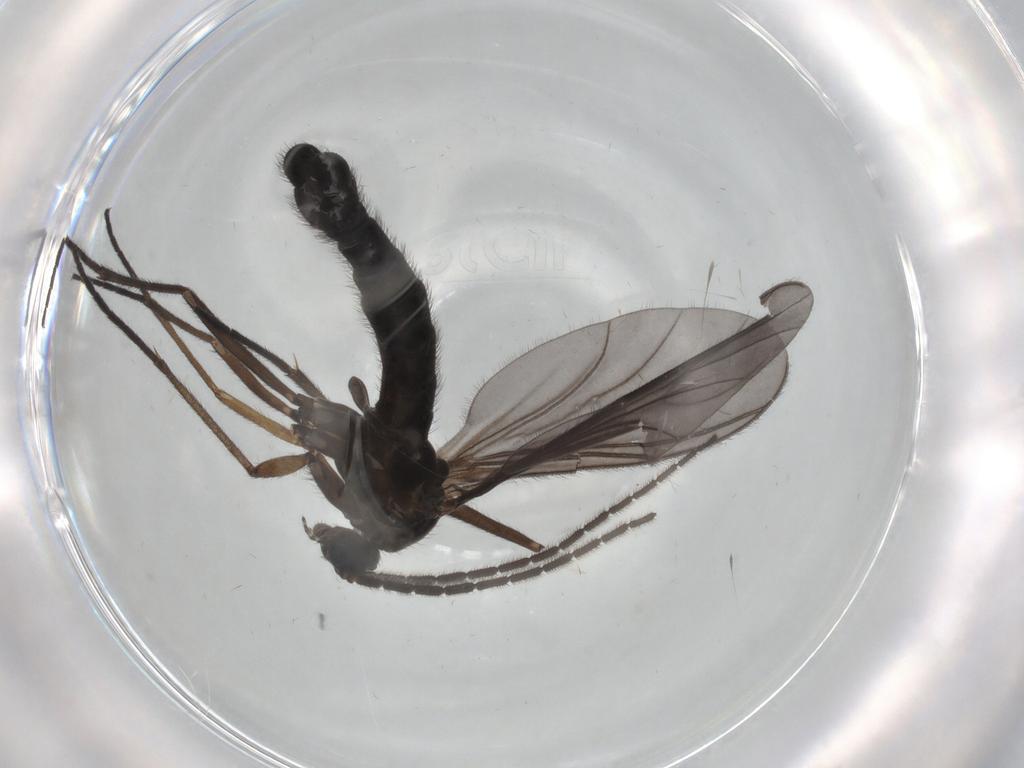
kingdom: Animalia
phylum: Arthropoda
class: Insecta
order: Diptera
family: Sciaridae
